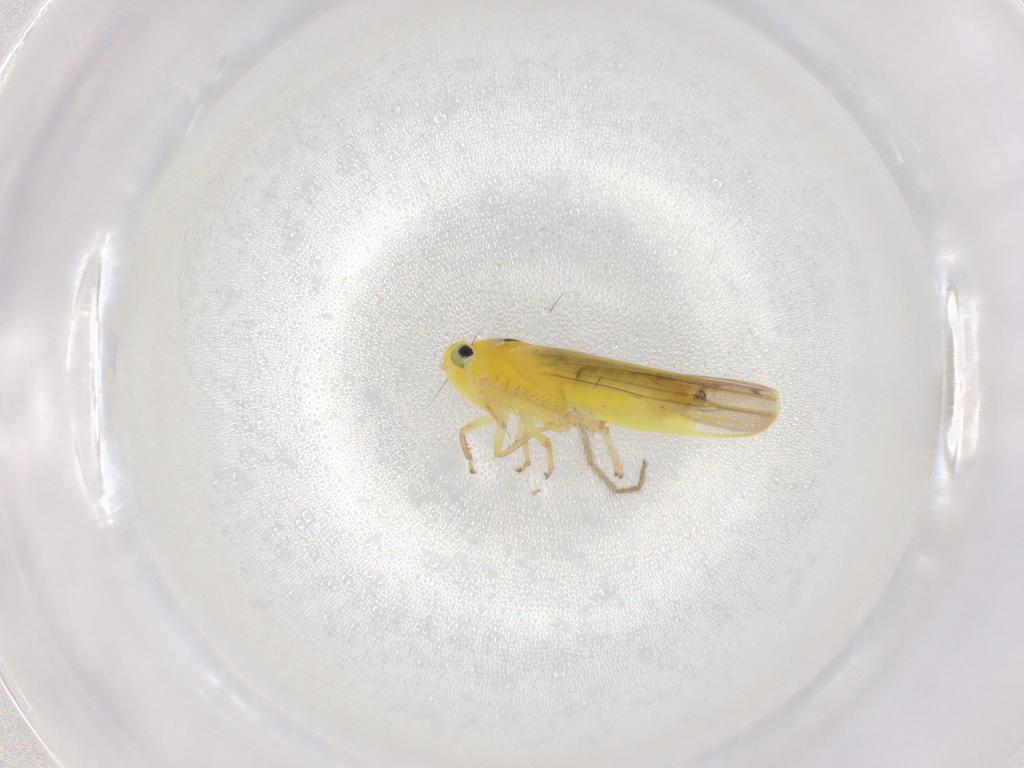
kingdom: Animalia
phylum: Arthropoda
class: Insecta
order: Hemiptera
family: Cicadellidae
